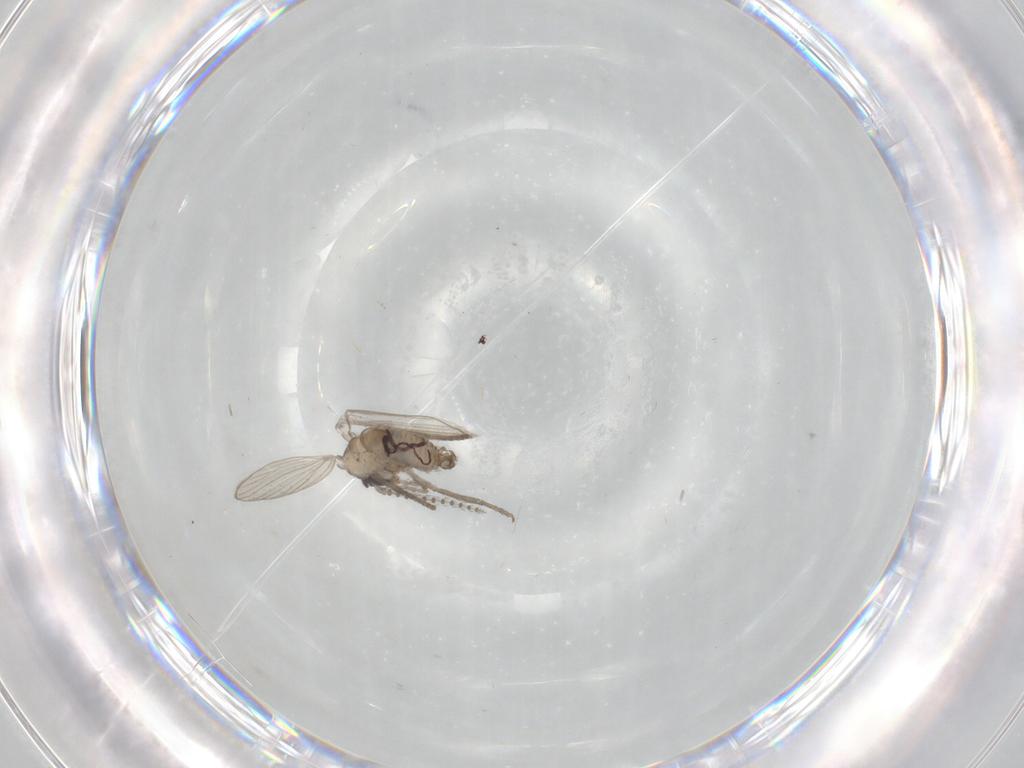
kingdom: Animalia
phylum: Arthropoda
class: Insecta
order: Diptera
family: Psychodidae
